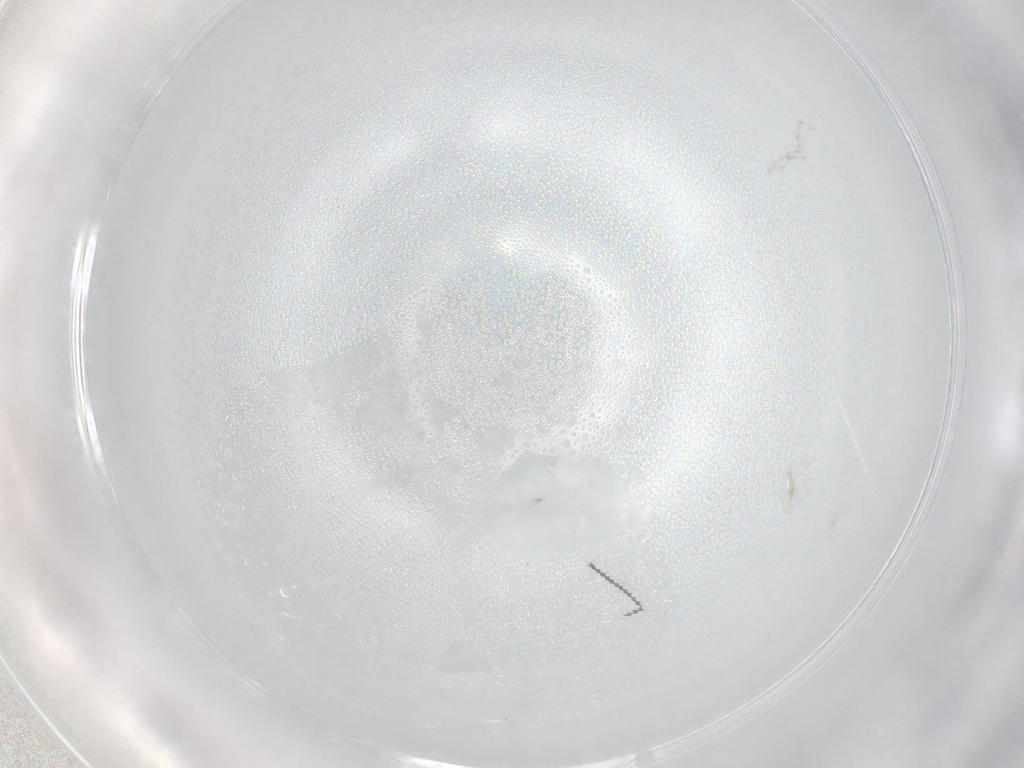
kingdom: Animalia
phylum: Arthropoda
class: Insecta
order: Diptera
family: Cecidomyiidae
